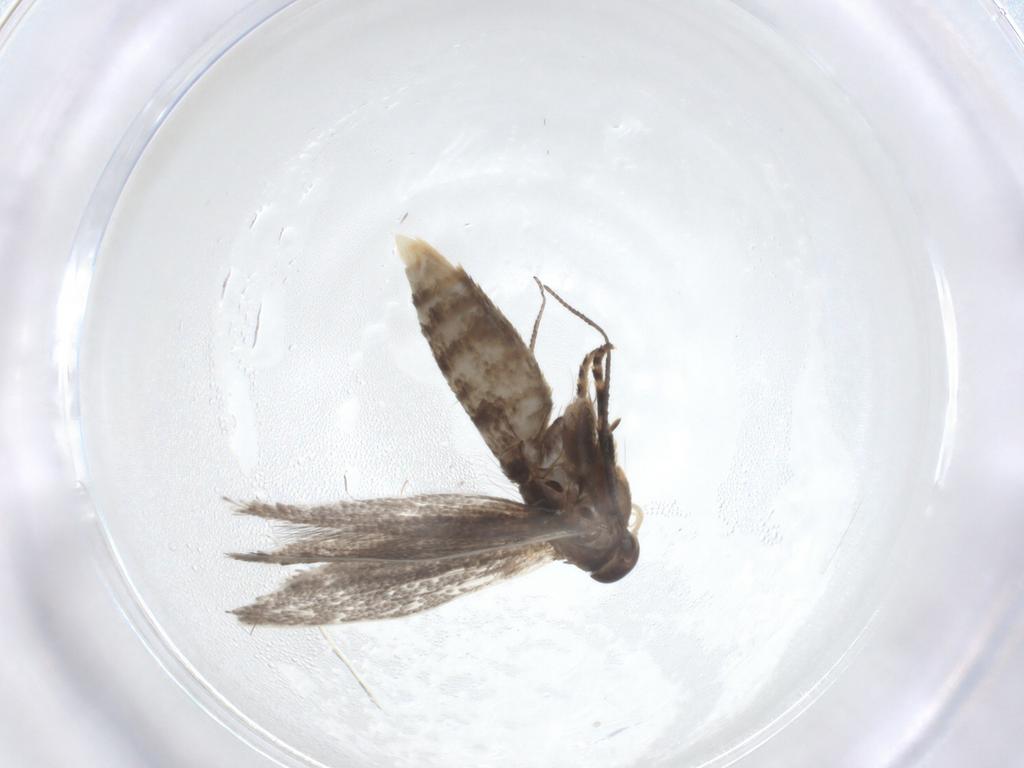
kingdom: Animalia
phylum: Arthropoda
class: Insecta
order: Lepidoptera
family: Elachistidae
